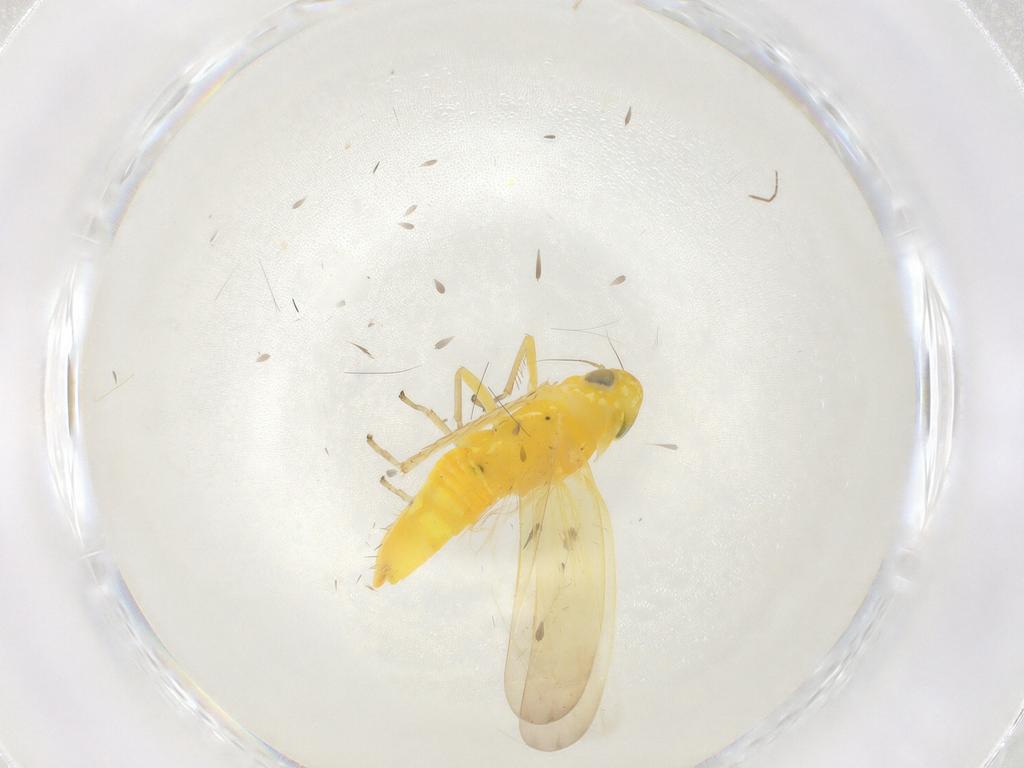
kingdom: Animalia
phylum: Arthropoda
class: Insecta
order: Hemiptera
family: Cicadellidae
